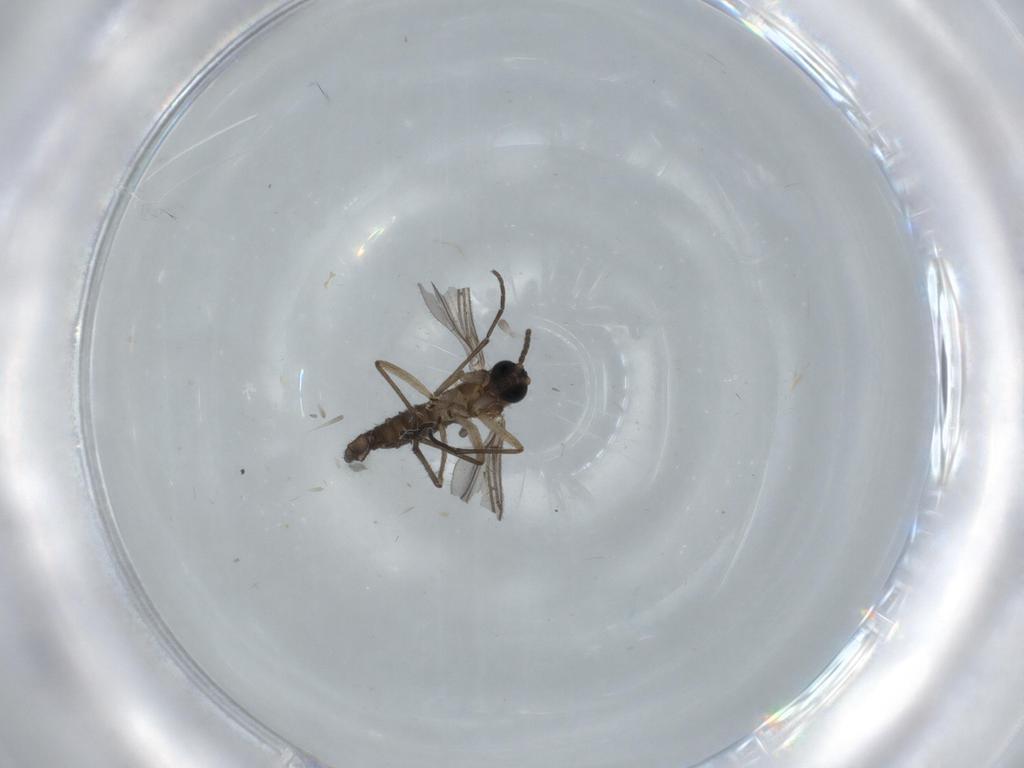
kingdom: Animalia
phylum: Arthropoda
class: Insecta
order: Diptera
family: Sciaridae
